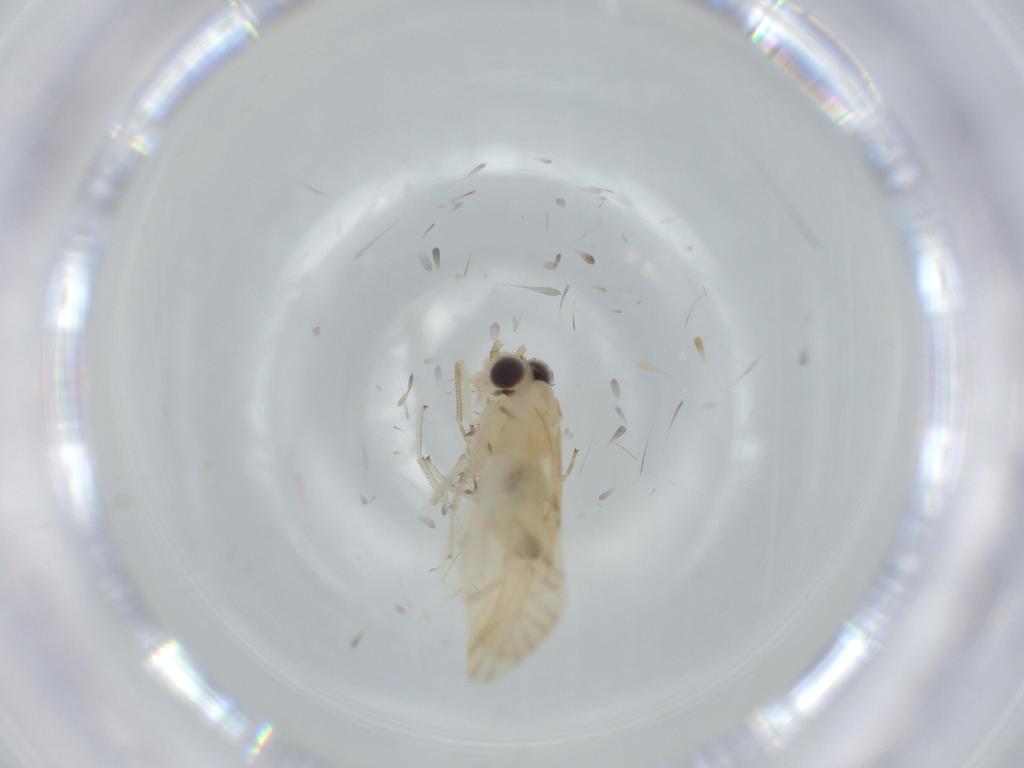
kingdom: Animalia
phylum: Arthropoda
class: Insecta
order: Psocodea
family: Caeciliusidae
